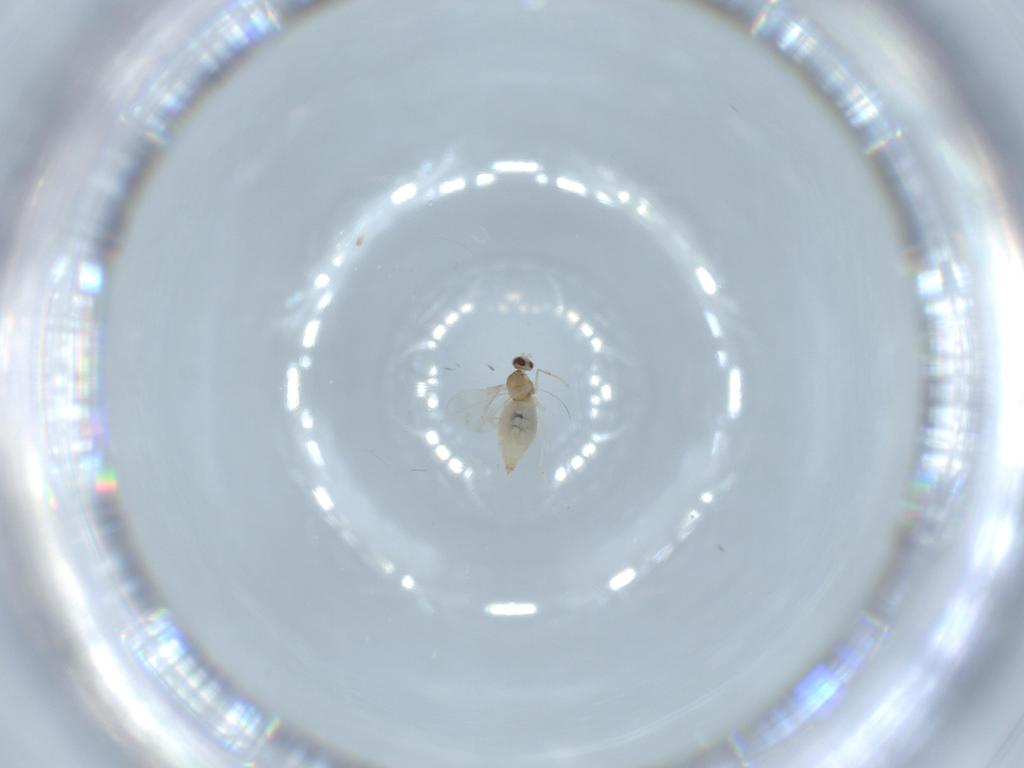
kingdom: Animalia
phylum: Arthropoda
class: Insecta
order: Diptera
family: Cecidomyiidae
